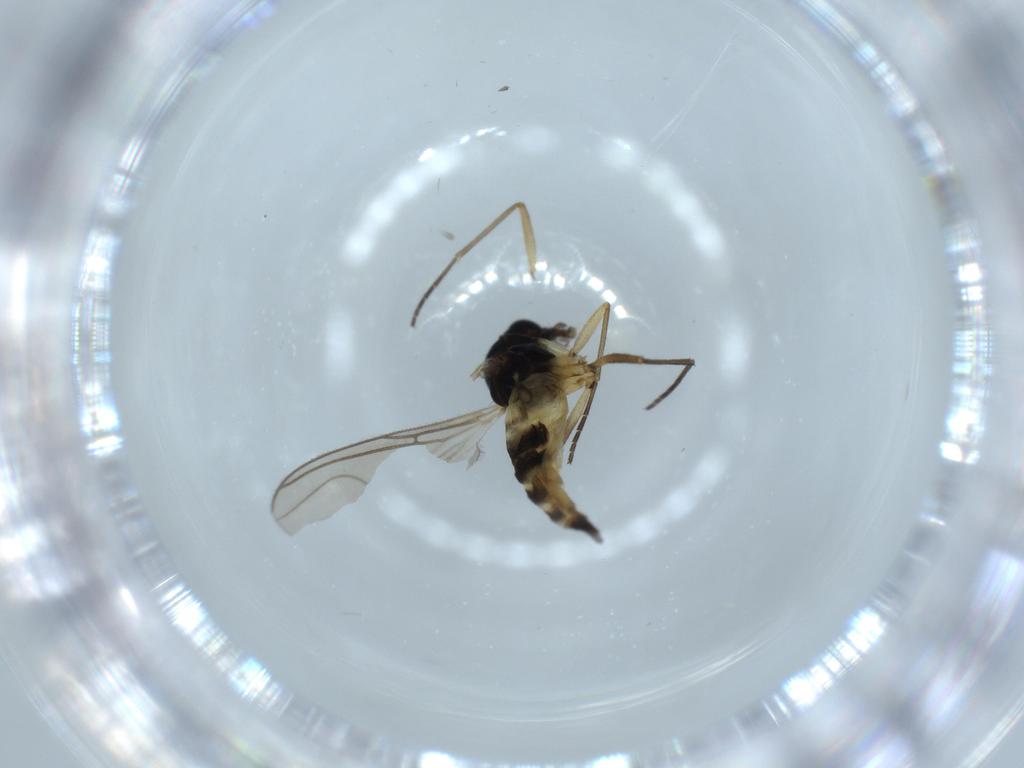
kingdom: Animalia
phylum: Arthropoda
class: Insecta
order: Diptera
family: Sciaridae
